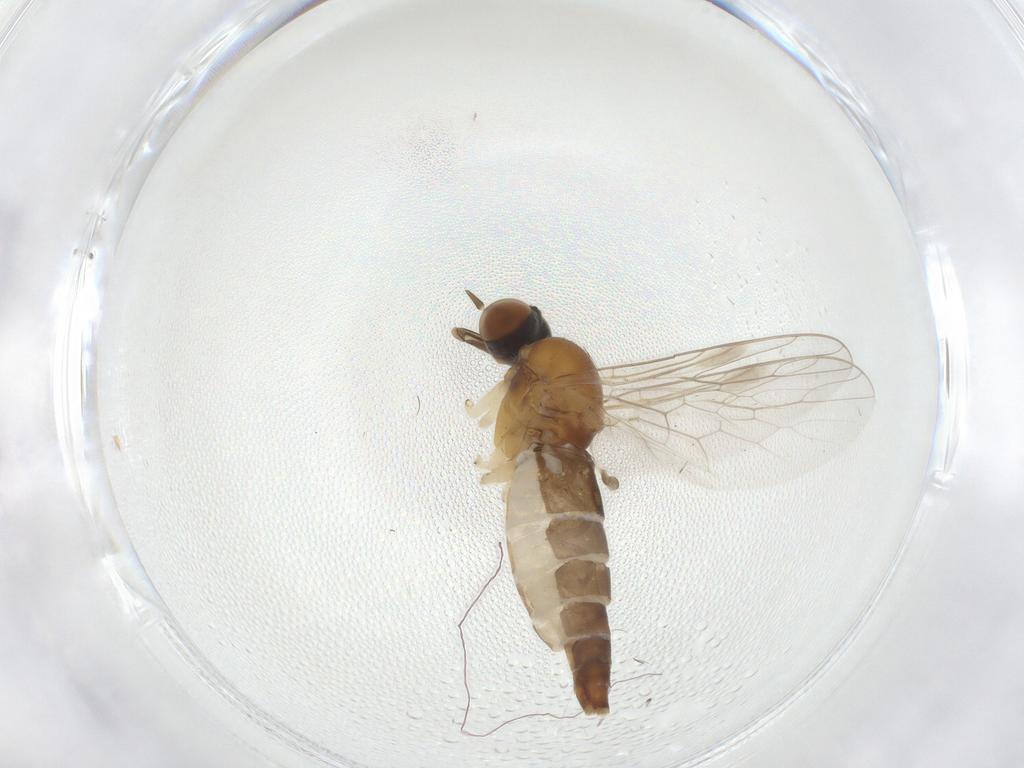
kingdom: Animalia
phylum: Arthropoda
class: Insecta
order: Diptera
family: Scenopinidae
